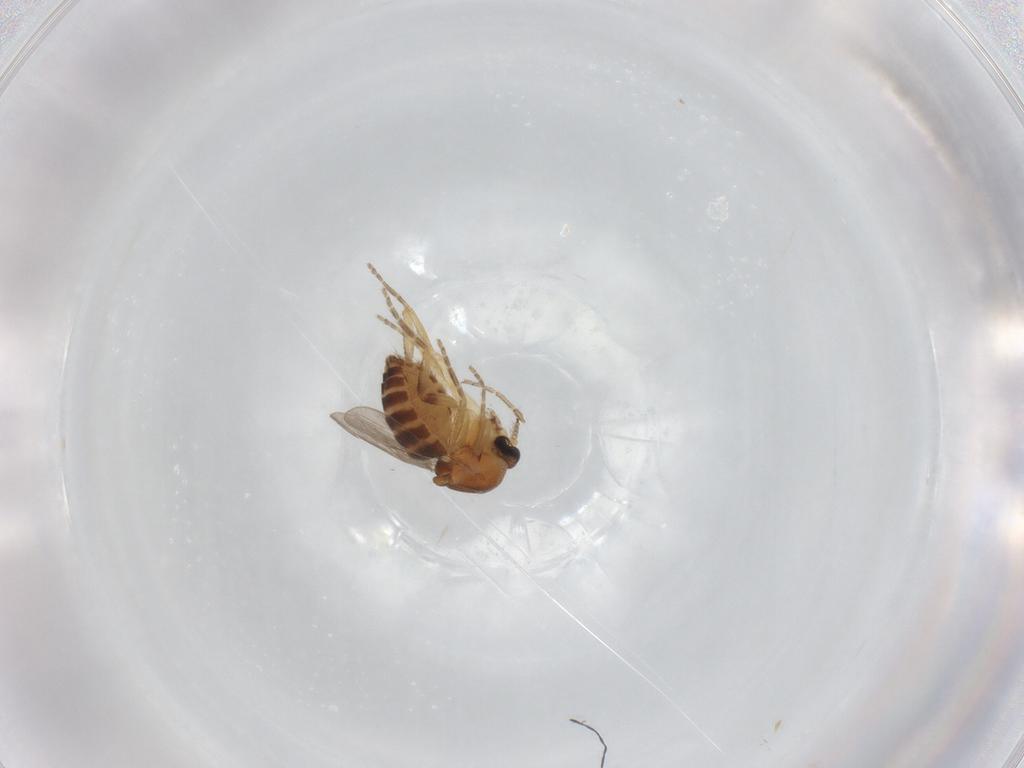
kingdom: Animalia
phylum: Arthropoda
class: Insecta
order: Diptera
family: Ceratopogonidae
